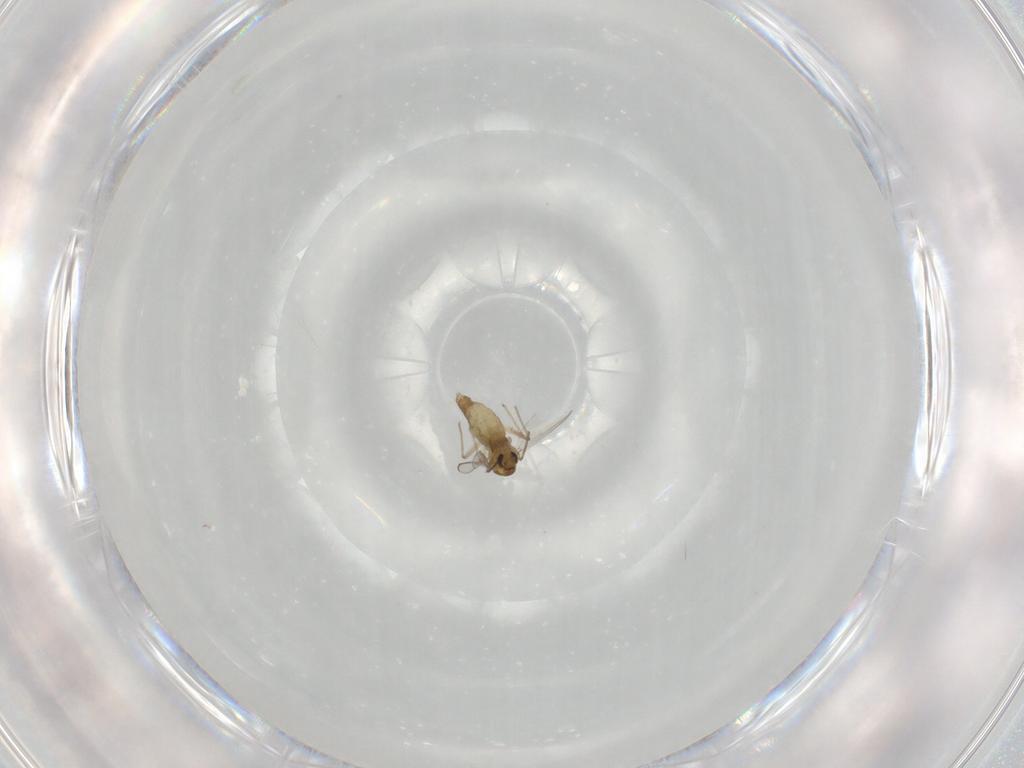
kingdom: Animalia
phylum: Arthropoda
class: Insecta
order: Diptera
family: Chironomidae
